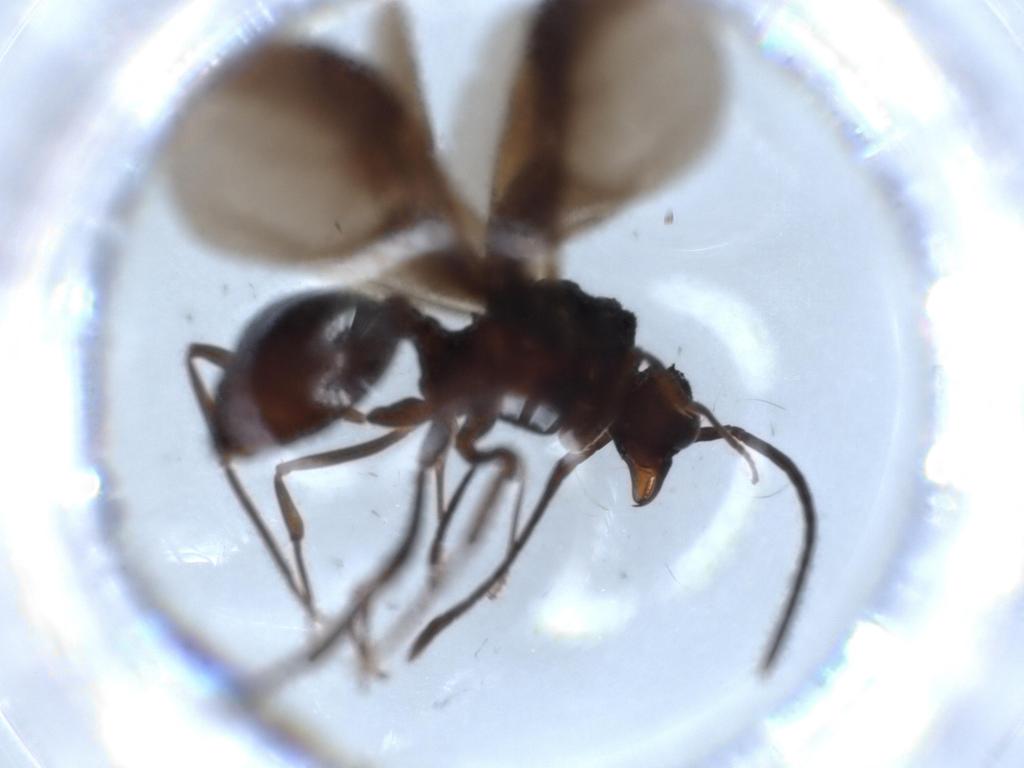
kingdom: Animalia
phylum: Arthropoda
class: Insecta
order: Hymenoptera
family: Formicidae
